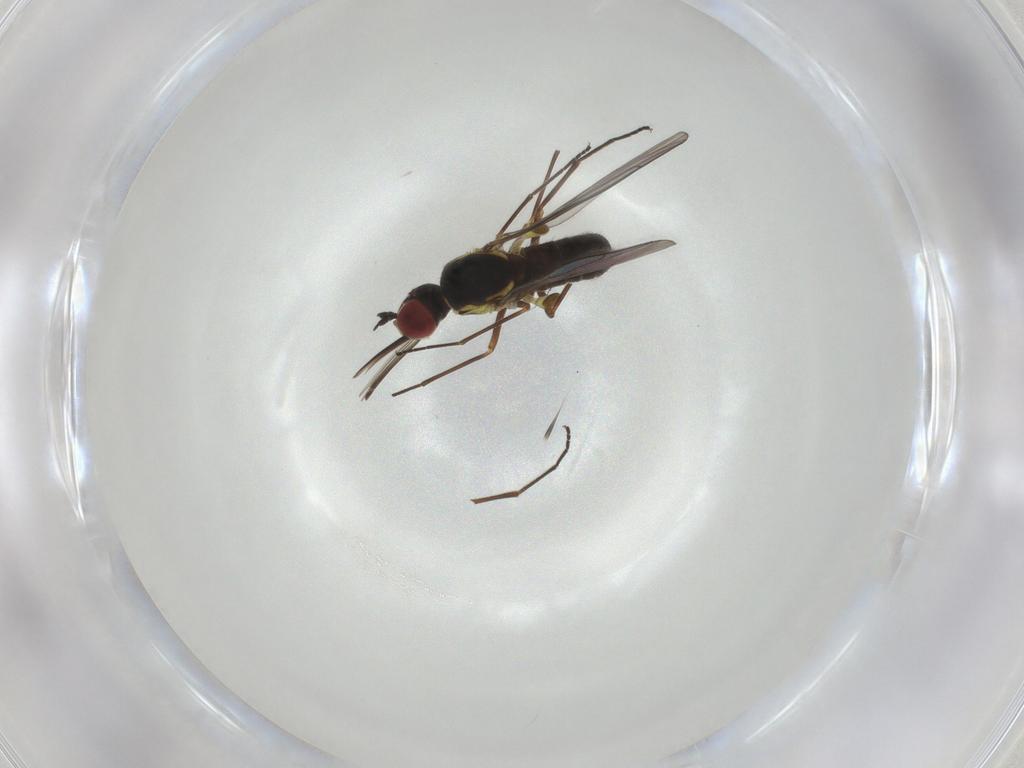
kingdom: Animalia
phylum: Arthropoda
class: Insecta
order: Diptera
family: Bombyliidae
